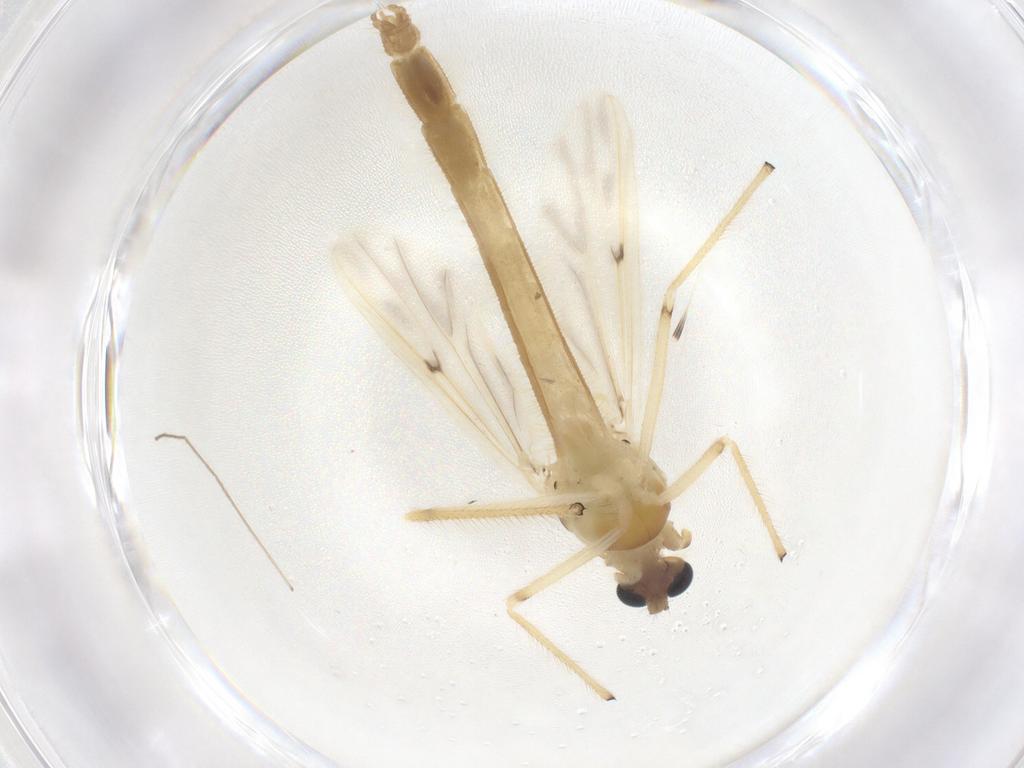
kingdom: Animalia
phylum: Arthropoda
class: Insecta
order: Diptera
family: Chironomidae
